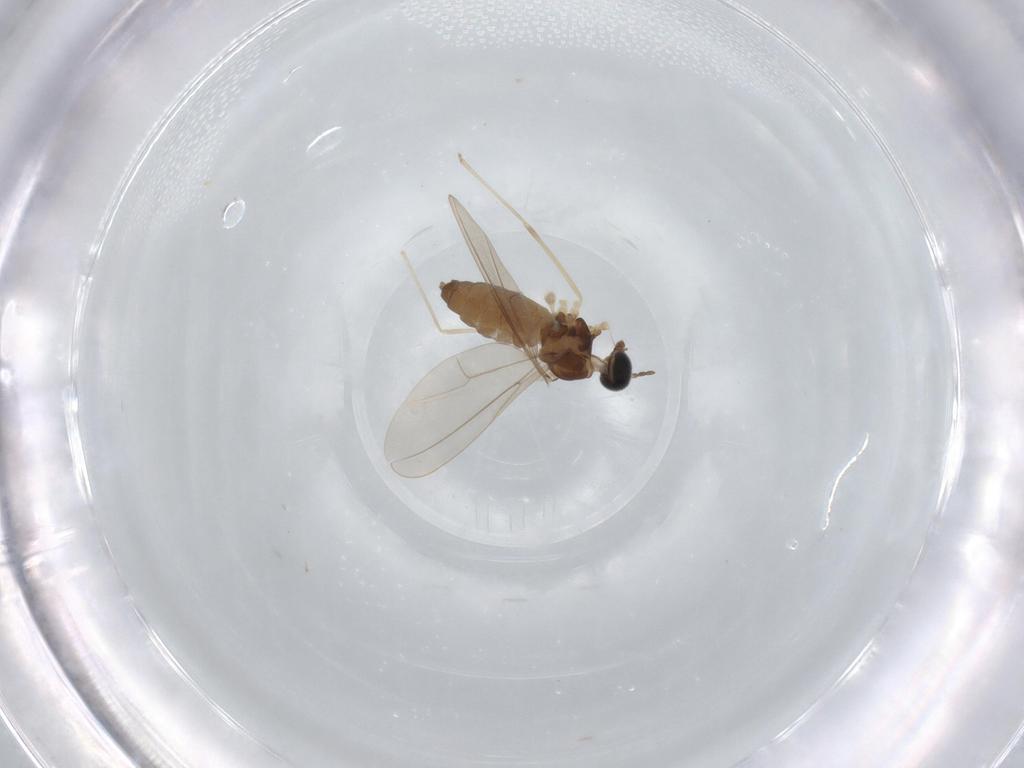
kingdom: Animalia
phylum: Arthropoda
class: Insecta
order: Diptera
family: Cecidomyiidae
